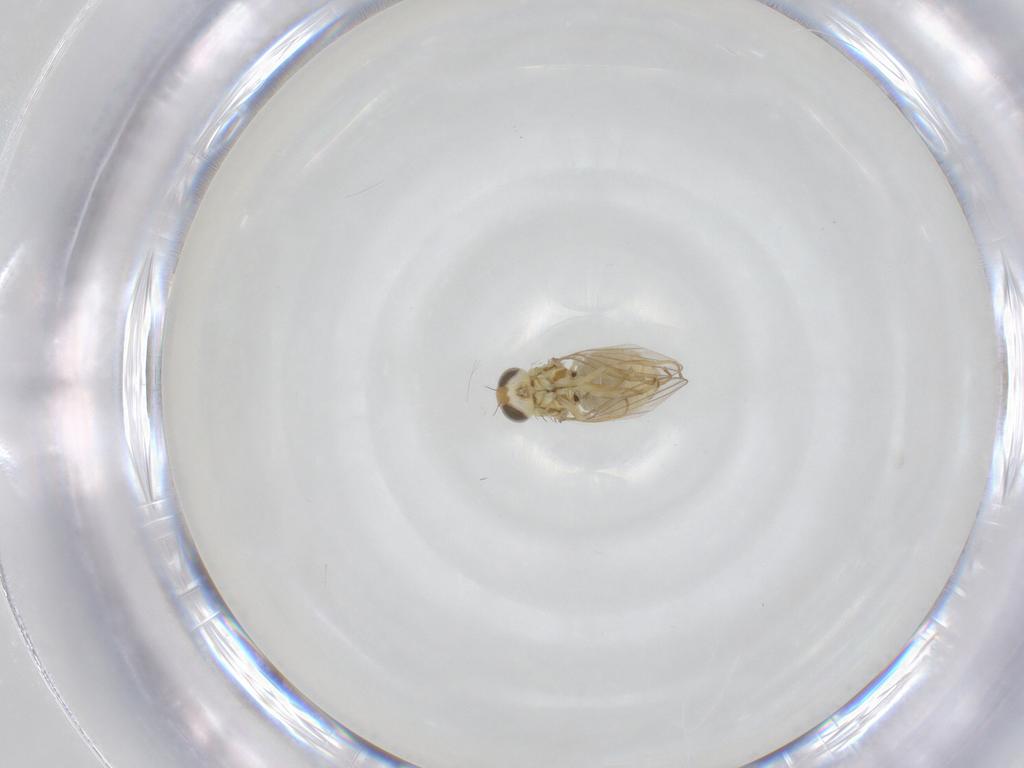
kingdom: Animalia
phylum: Arthropoda
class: Insecta
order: Diptera
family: Chyromyidae
